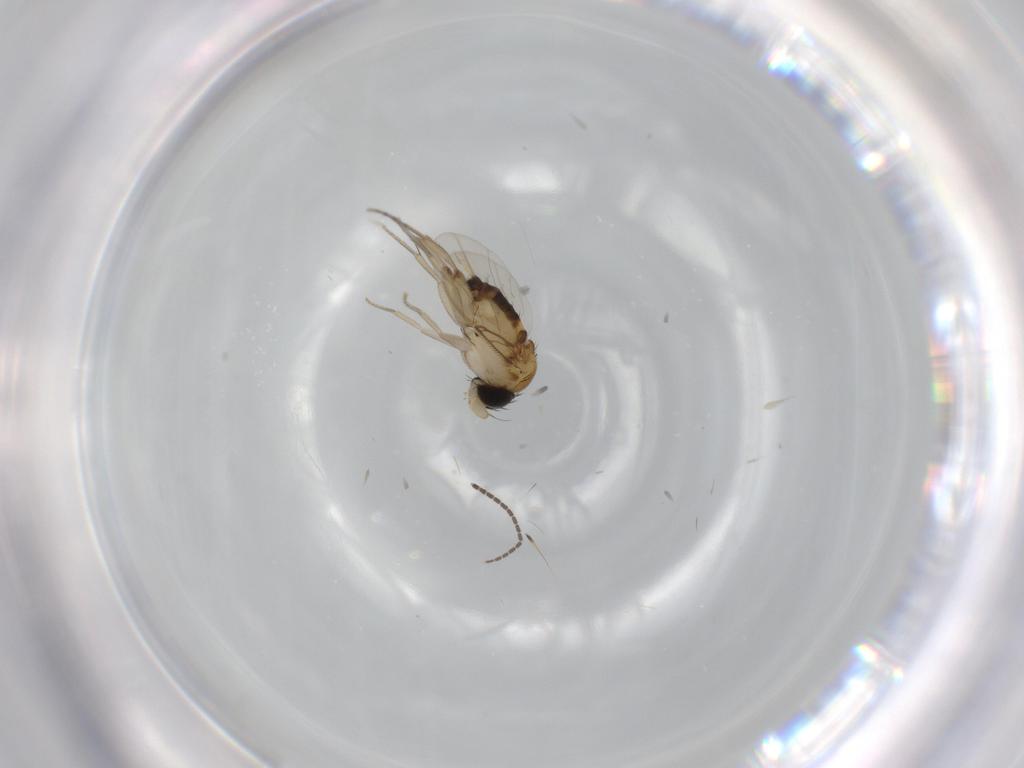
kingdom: Animalia
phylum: Arthropoda
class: Insecta
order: Diptera
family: Phoridae
